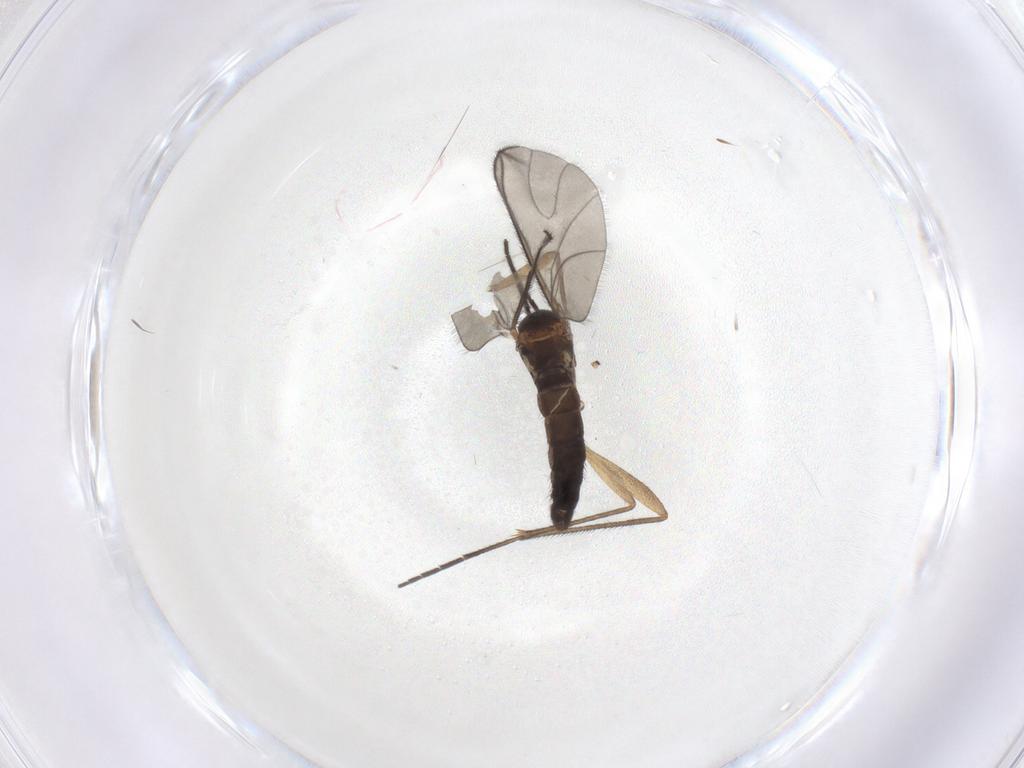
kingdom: Animalia
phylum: Arthropoda
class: Insecta
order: Diptera
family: Sciaridae
